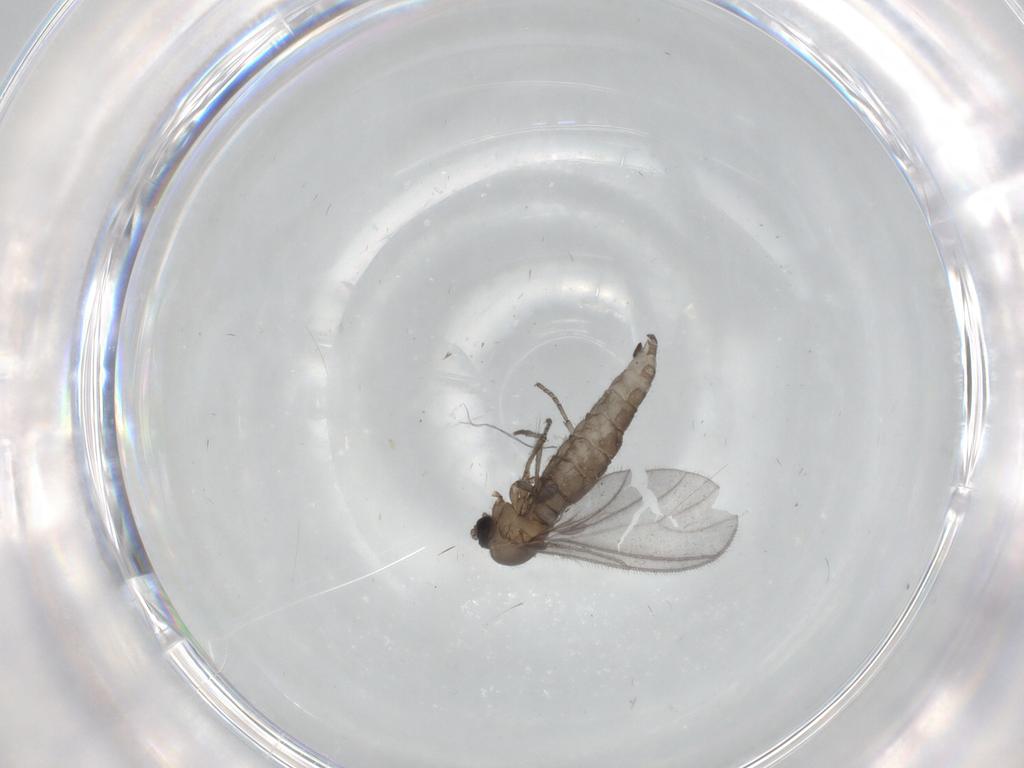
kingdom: Animalia
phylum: Arthropoda
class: Insecta
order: Diptera
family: Sciaridae
